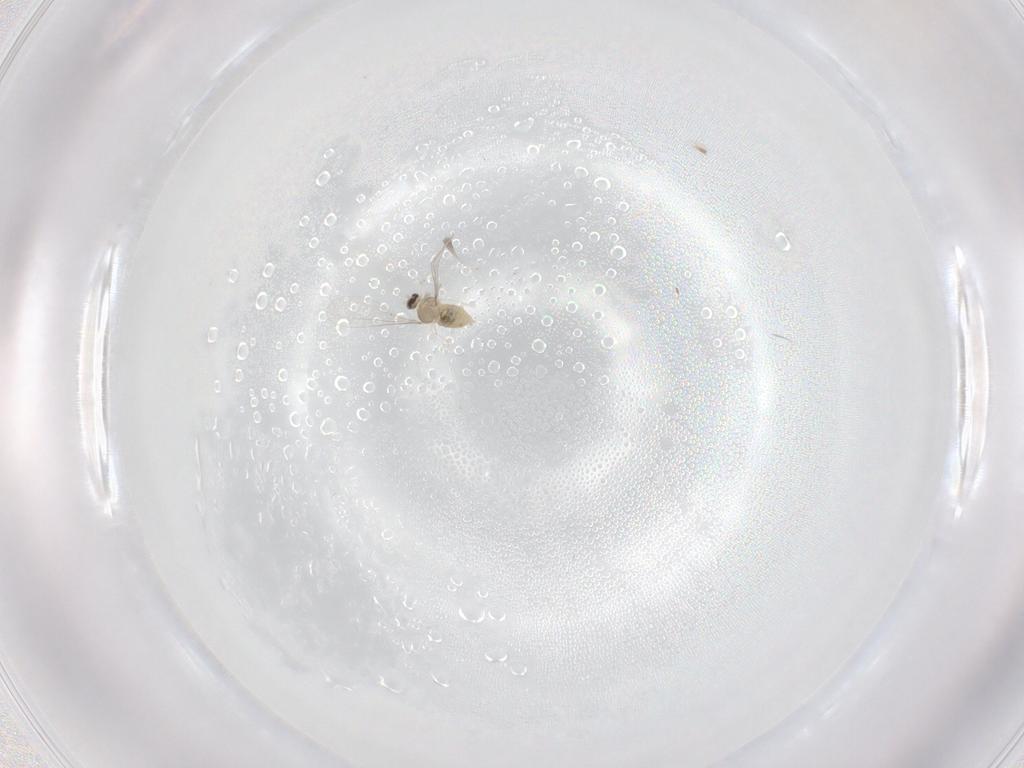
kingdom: Animalia
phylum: Arthropoda
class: Insecta
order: Diptera
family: Cecidomyiidae
